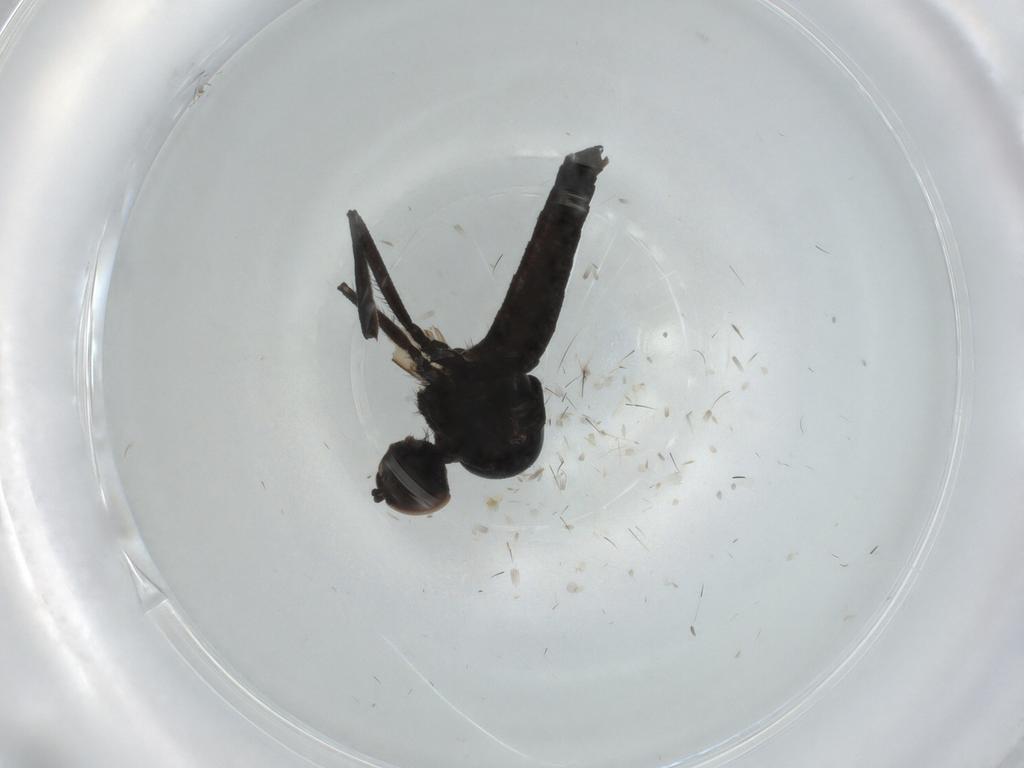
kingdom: Animalia
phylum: Arthropoda
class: Insecta
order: Diptera
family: Hybotidae
